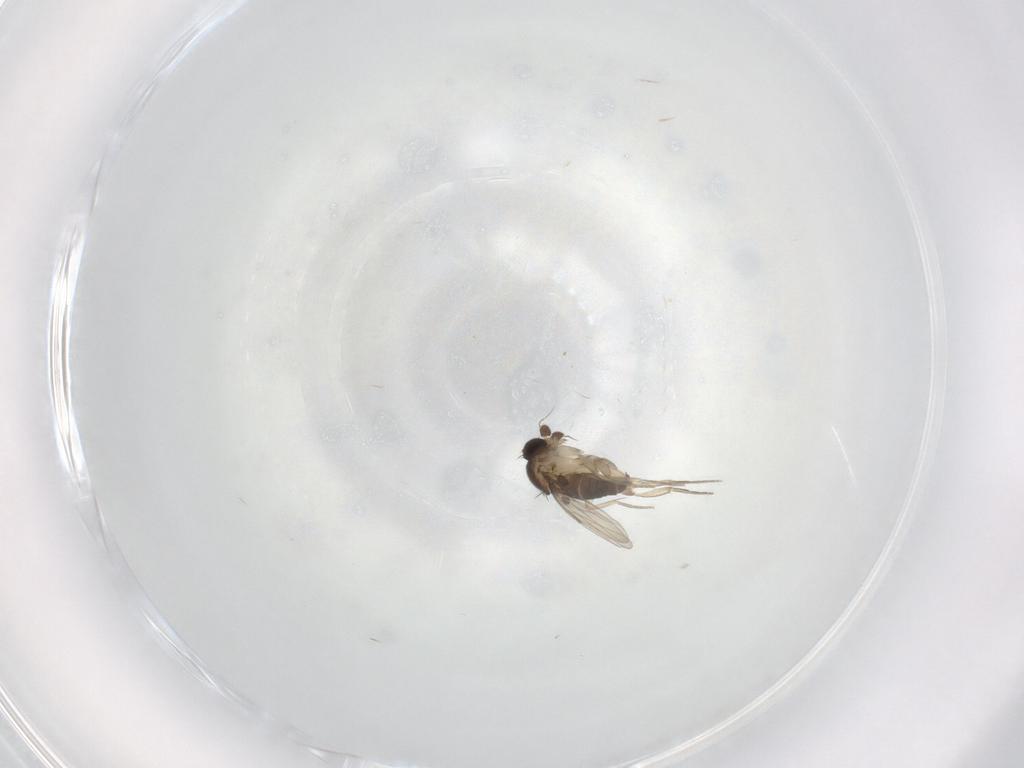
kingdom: Animalia
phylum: Arthropoda
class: Insecta
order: Diptera
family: Phoridae
